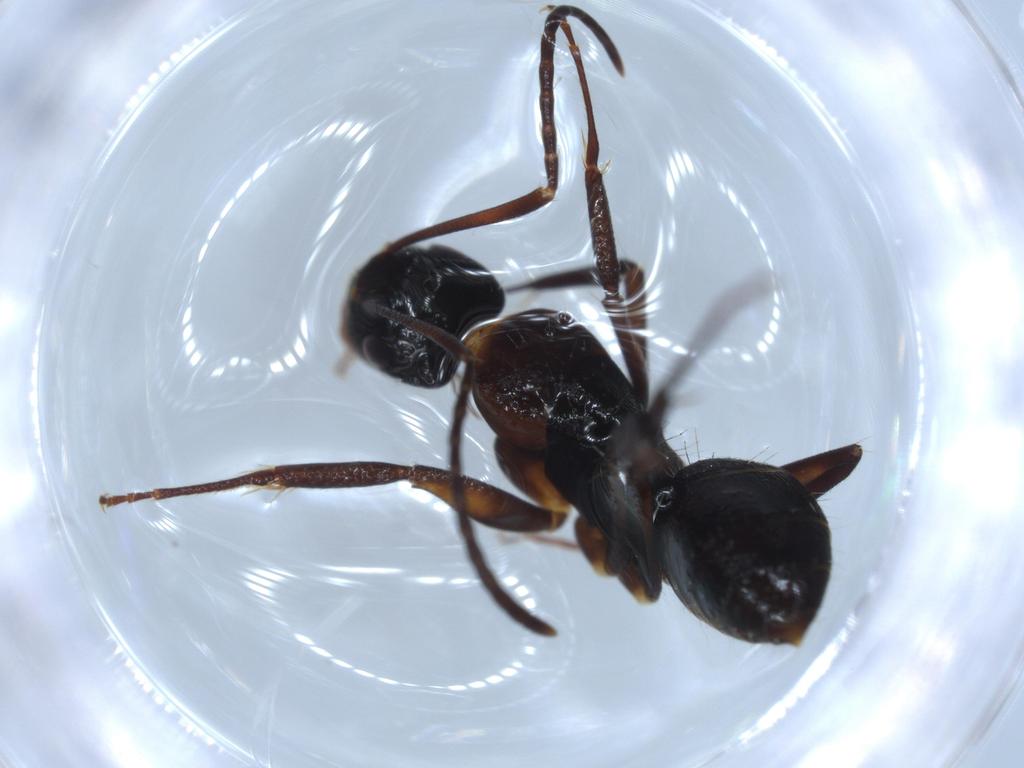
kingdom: Animalia
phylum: Arthropoda
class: Insecta
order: Hymenoptera
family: Formicidae
